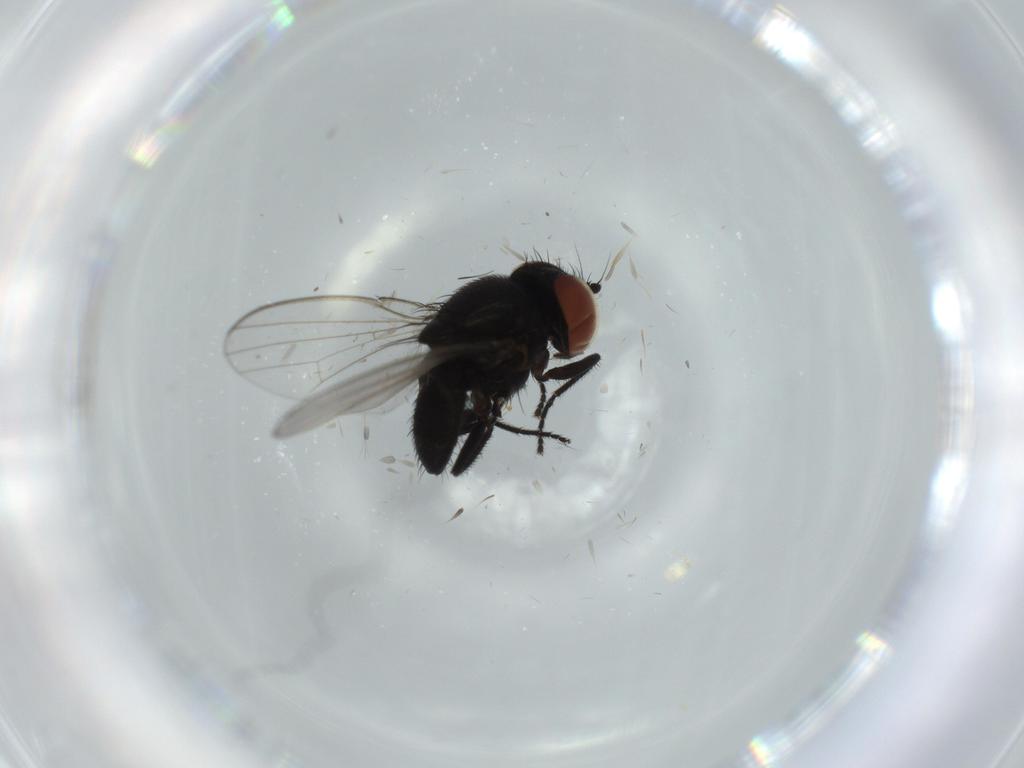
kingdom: Animalia
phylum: Arthropoda
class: Insecta
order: Diptera
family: Milichiidae
